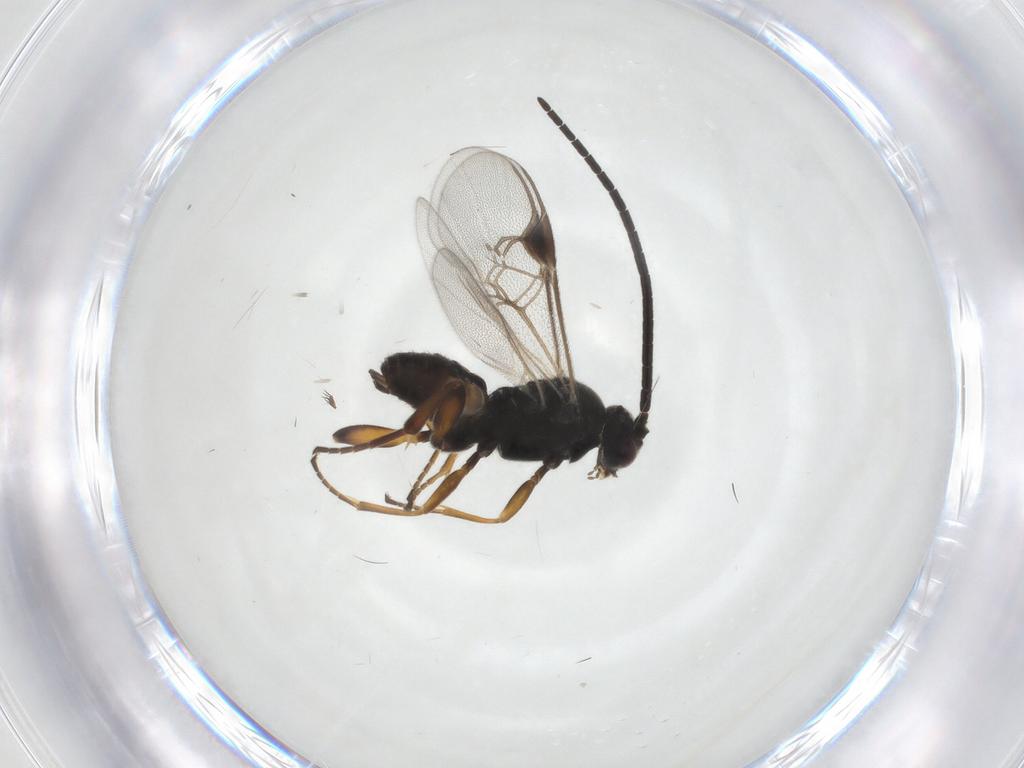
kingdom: Animalia
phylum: Arthropoda
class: Insecta
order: Hymenoptera
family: Braconidae
